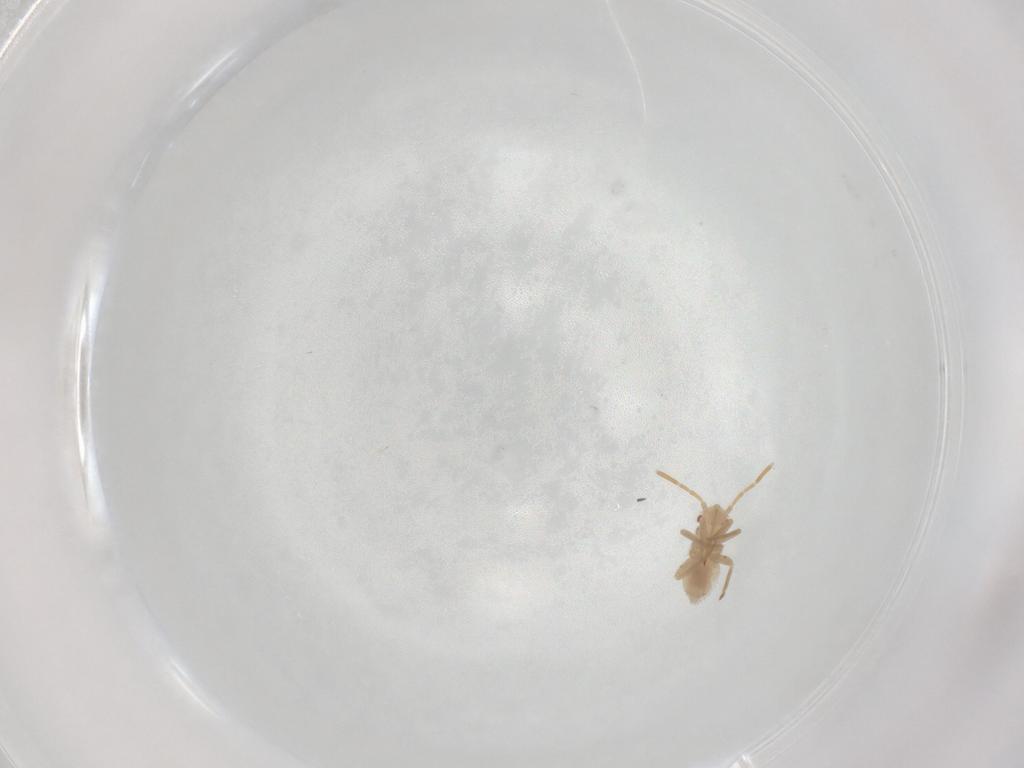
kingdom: Animalia
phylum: Arthropoda
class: Insecta
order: Hemiptera
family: Miridae
